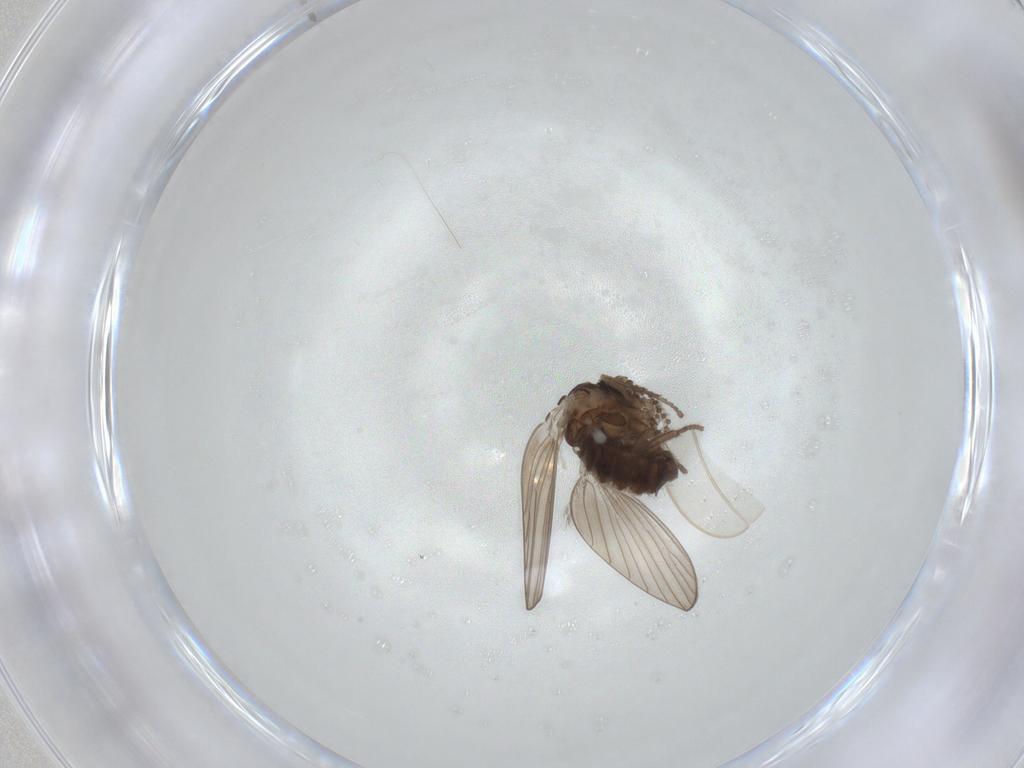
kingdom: Animalia
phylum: Arthropoda
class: Insecta
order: Diptera
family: Psychodidae
